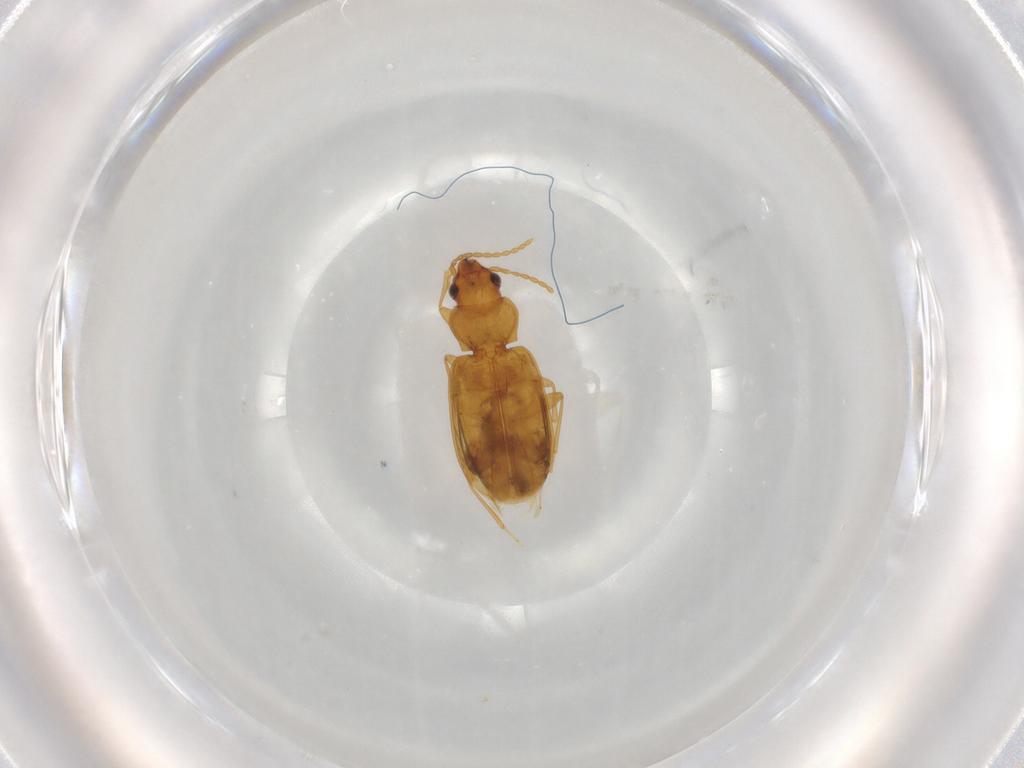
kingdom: Animalia
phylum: Arthropoda
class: Insecta
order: Coleoptera
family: Carabidae
